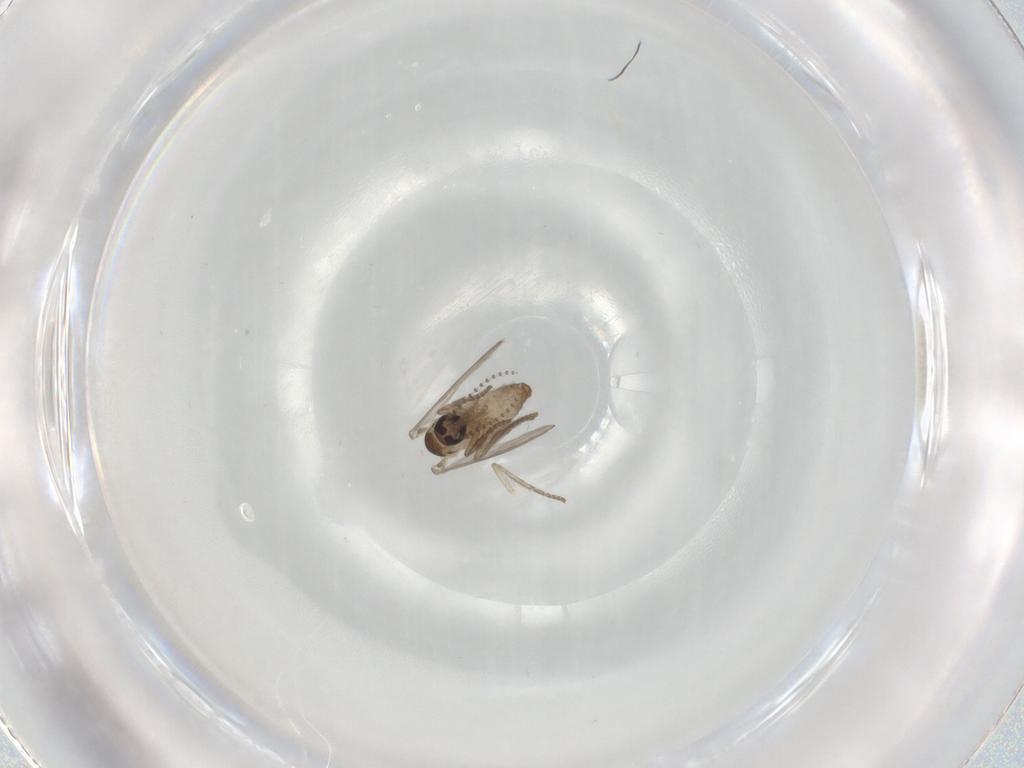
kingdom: Animalia
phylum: Arthropoda
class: Insecta
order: Diptera
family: Psychodidae
